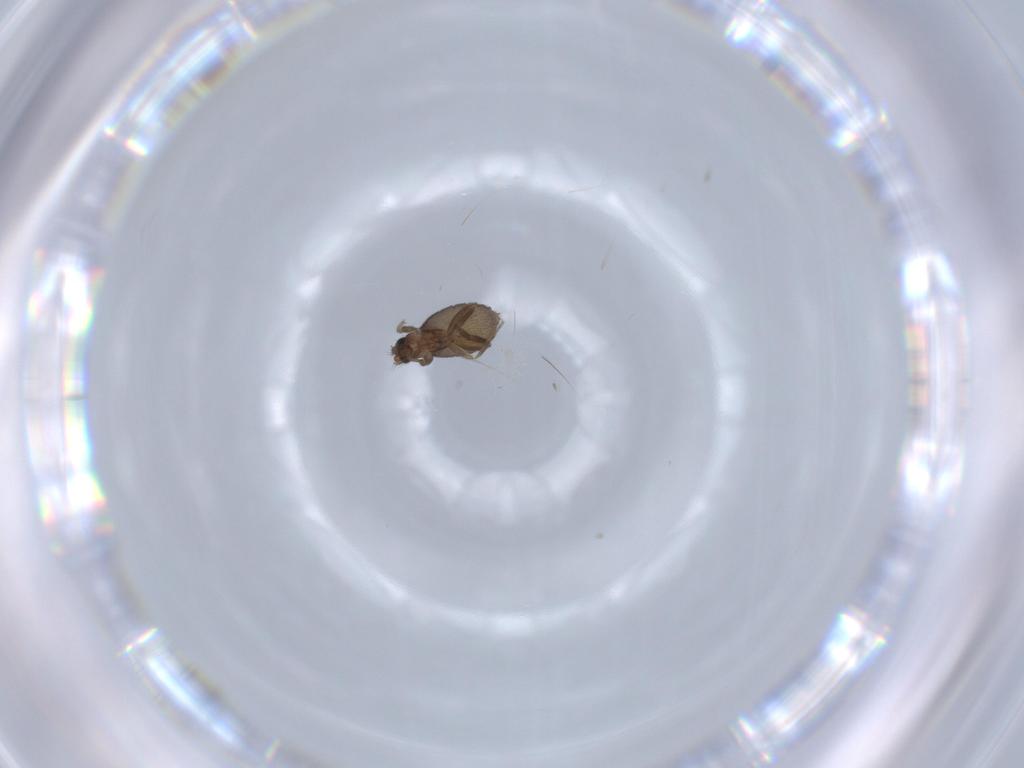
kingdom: Animalia
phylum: Arthropoda
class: Insecta
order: Diptera
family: Phoridae
